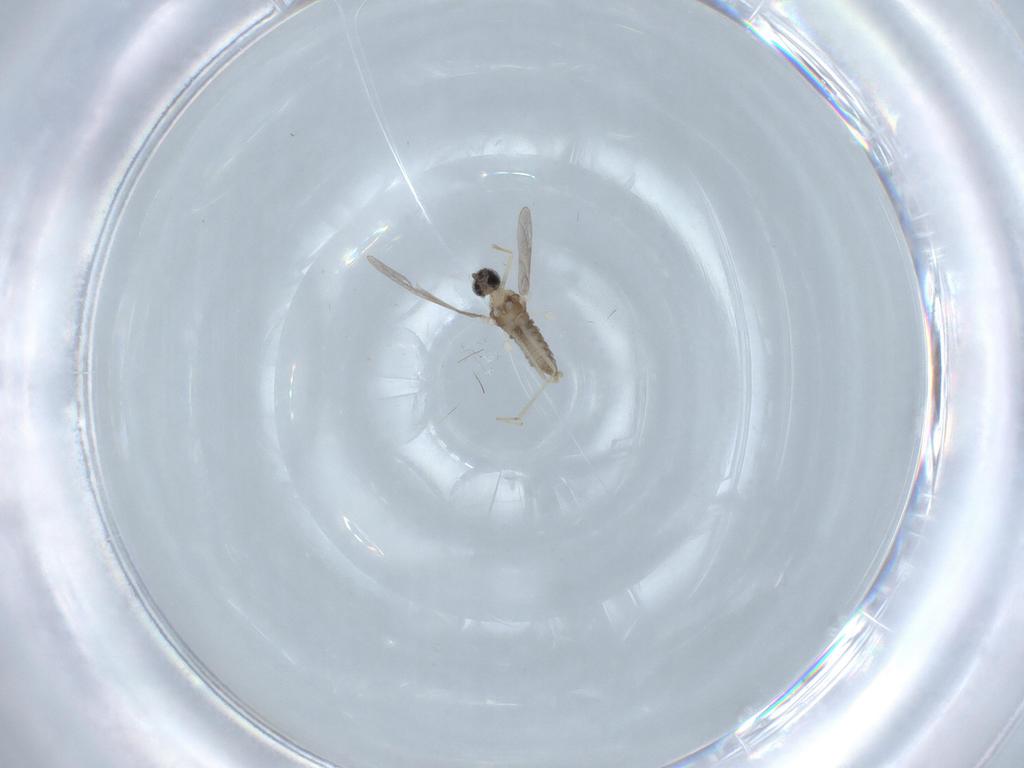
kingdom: Animalia
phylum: Arthropoda
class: Insecta
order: Diptera
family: Cecidomyiidae
